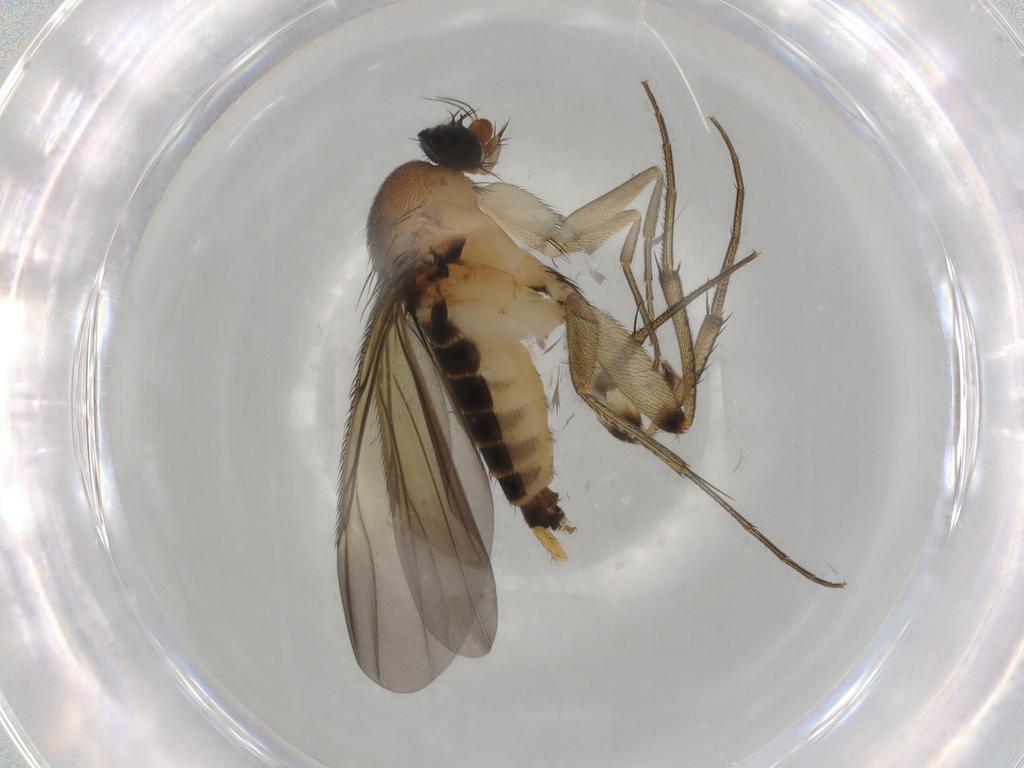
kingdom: Animalia
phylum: Arthropoda
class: Insecta
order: Diptera
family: Phoridae
